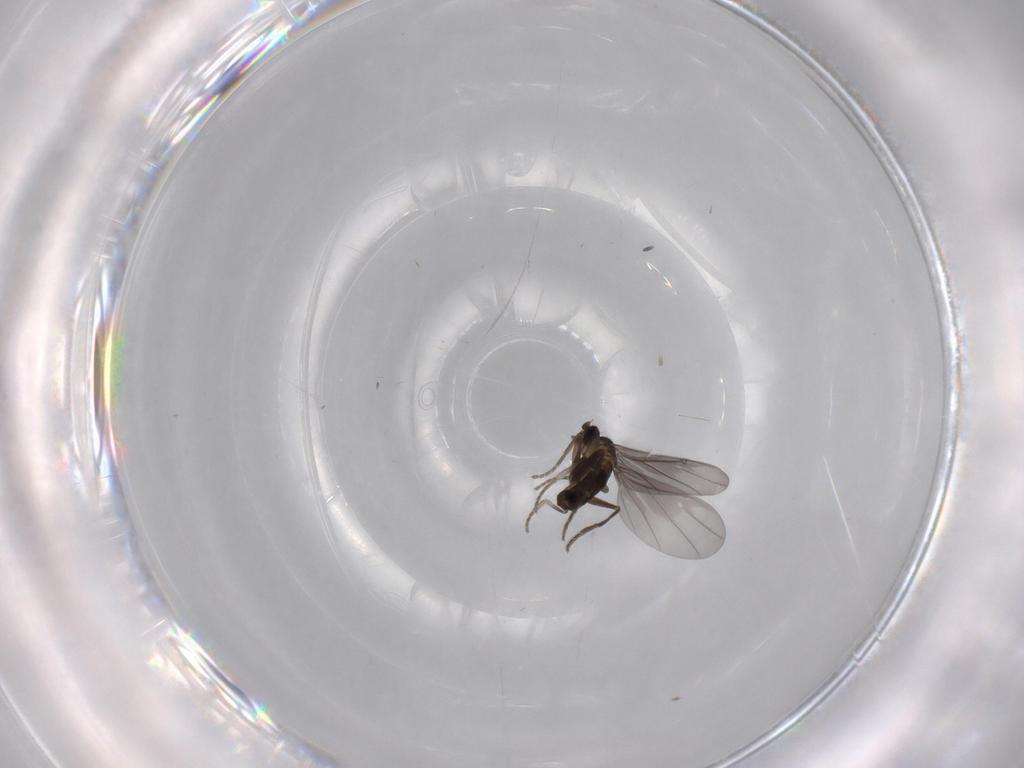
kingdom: Animalia
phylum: Arthropoda
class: Insecta
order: Diptera
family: Phoridae
